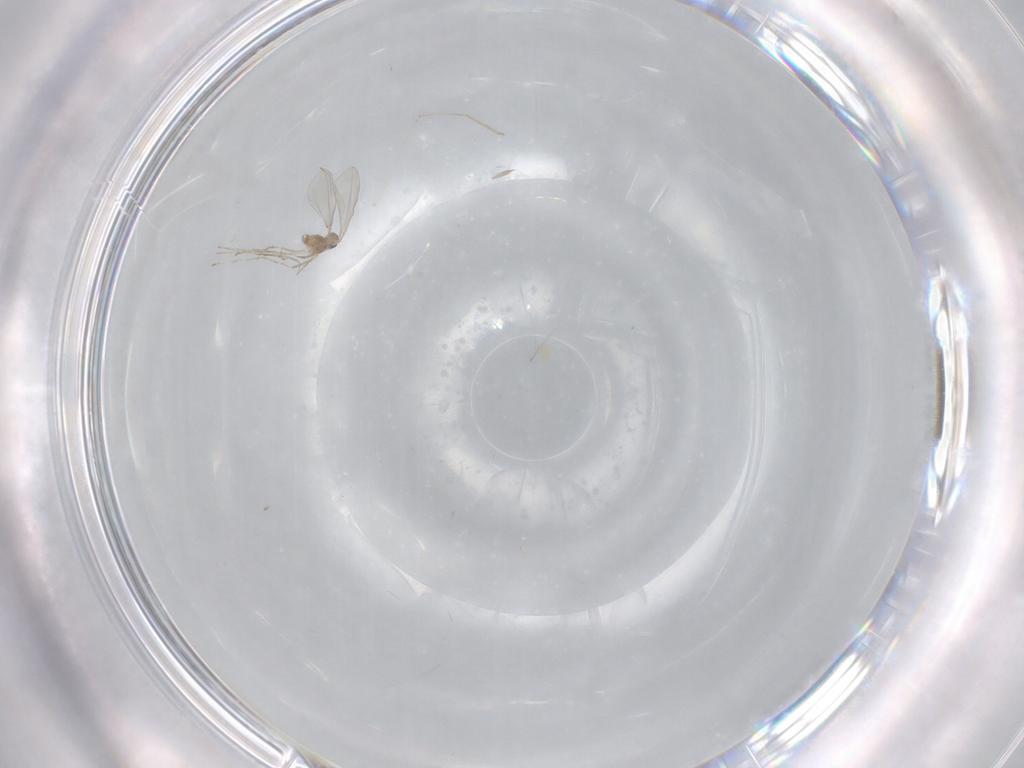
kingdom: Animalia
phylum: Arthropoda
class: Insecta
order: Diptera
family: Cecidomyiidae
